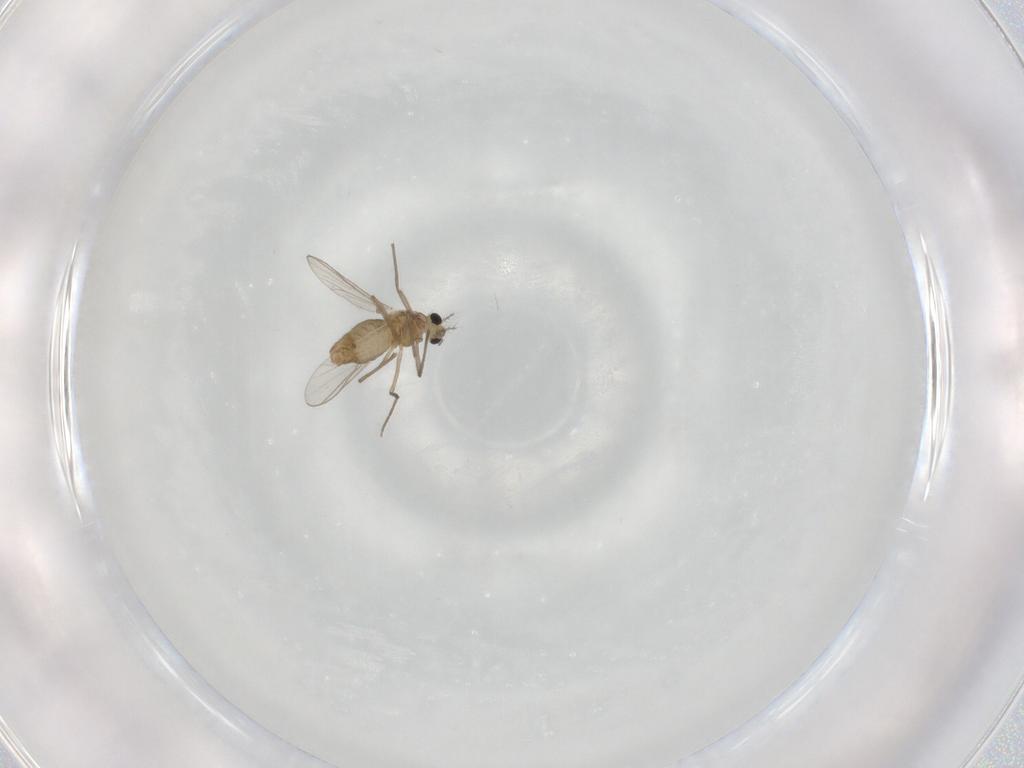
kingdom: Animalia
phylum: Arthropoda
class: Insecta
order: Diptera
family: Chironomidae
